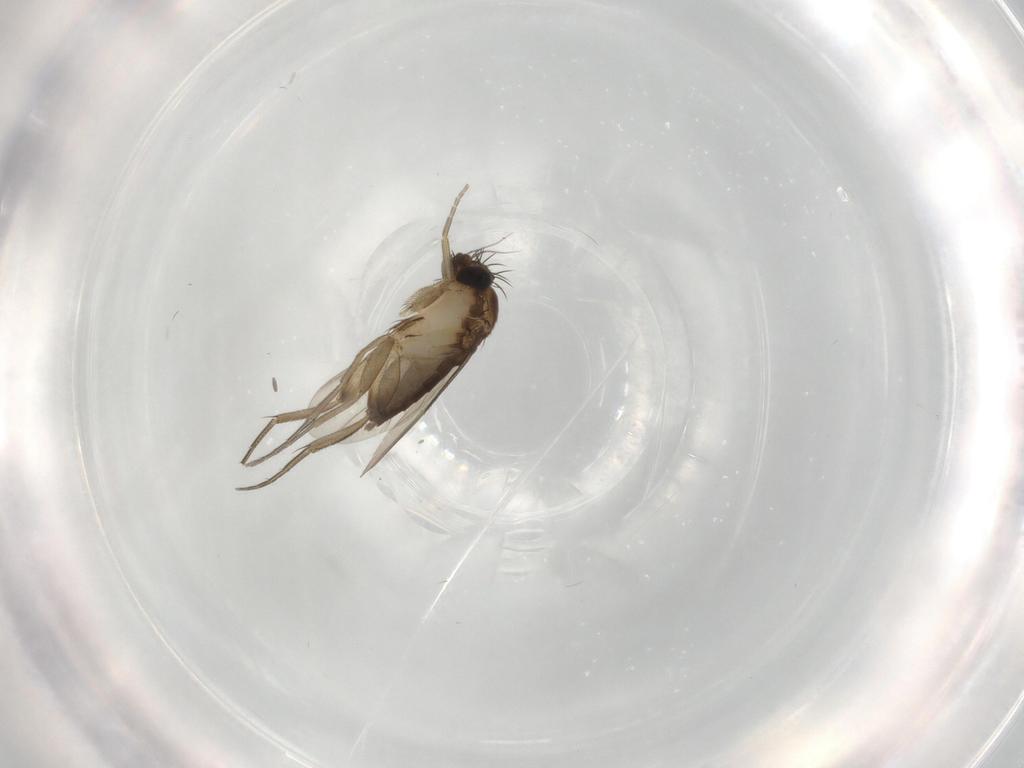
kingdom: Animalia
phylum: Arthropoda
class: Insecta
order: Diptera
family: Phoridae
